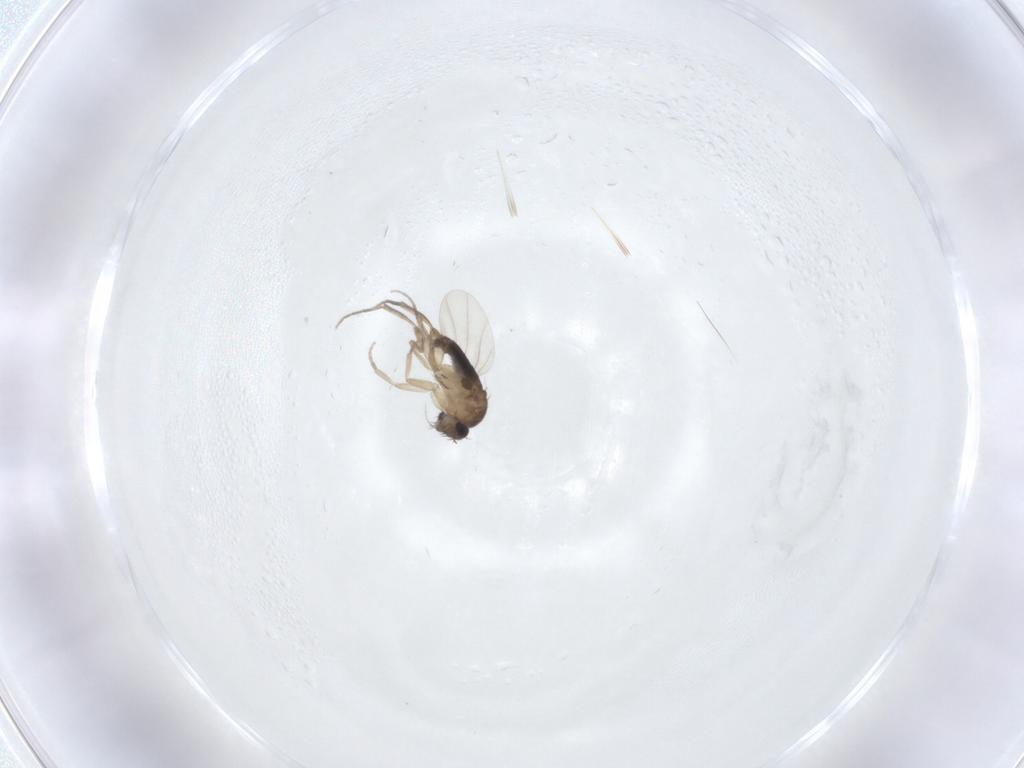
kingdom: Animalia
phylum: Arthropoda
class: Insecta
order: Diptera
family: Phoridae
